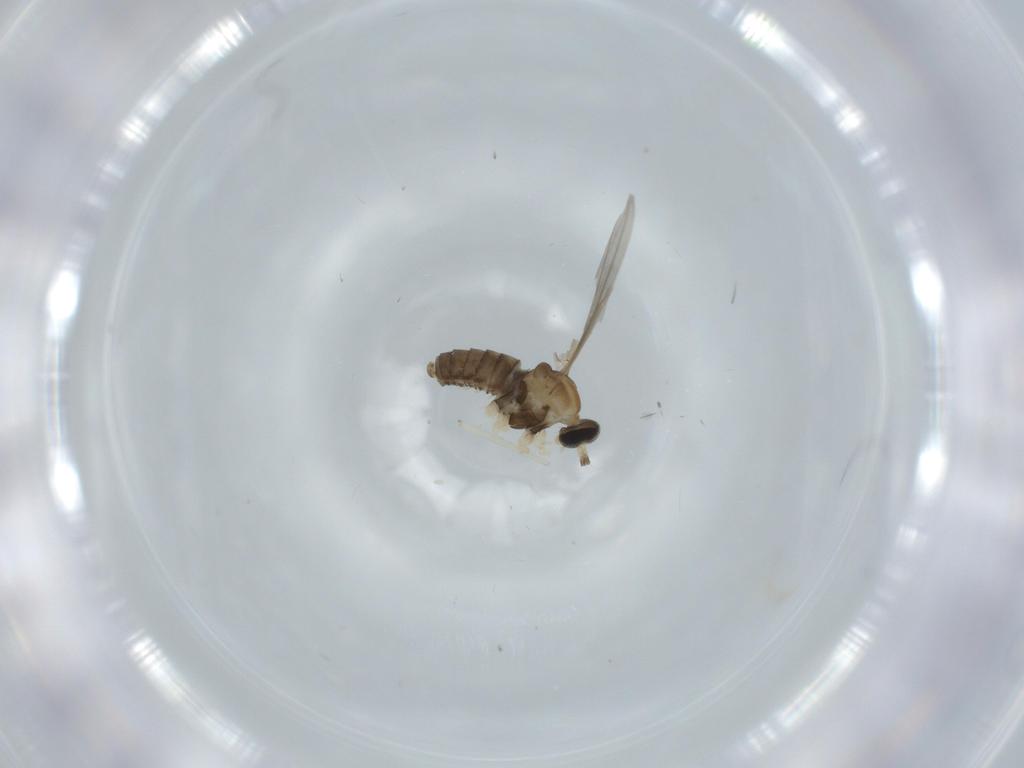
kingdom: Animalia
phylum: Arthropoda
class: Insecta
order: Diptera
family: Cecidomyiidae
